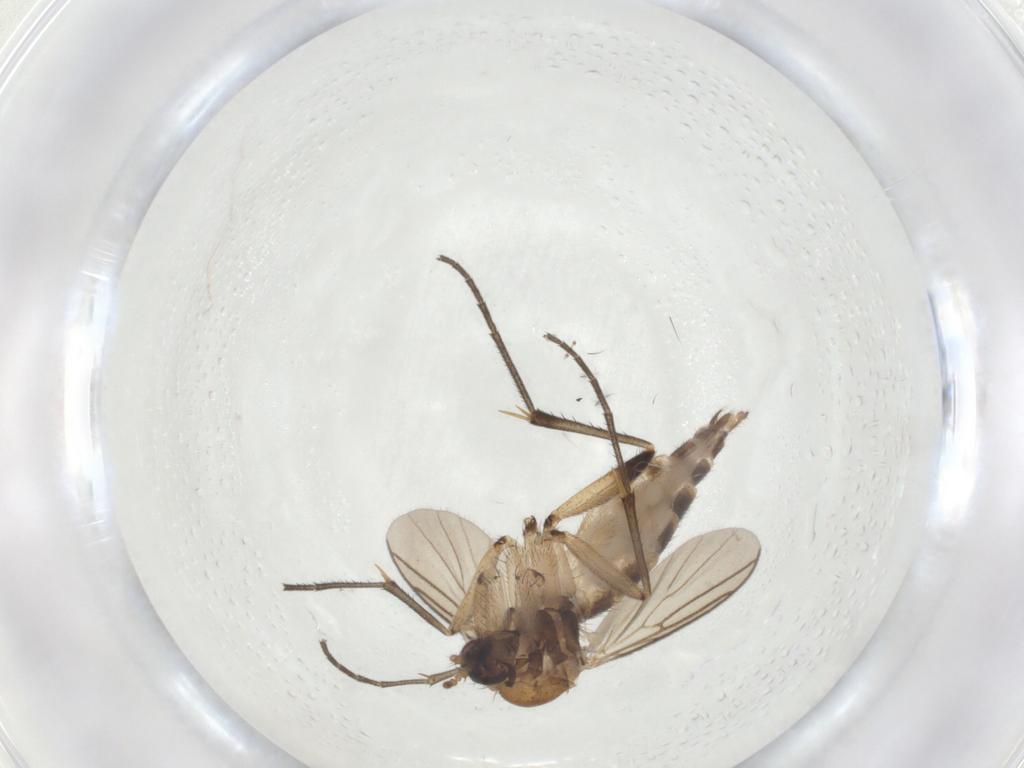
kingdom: Animalia
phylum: Arthropoda
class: Insecta
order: Diptera
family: Limoniidae
